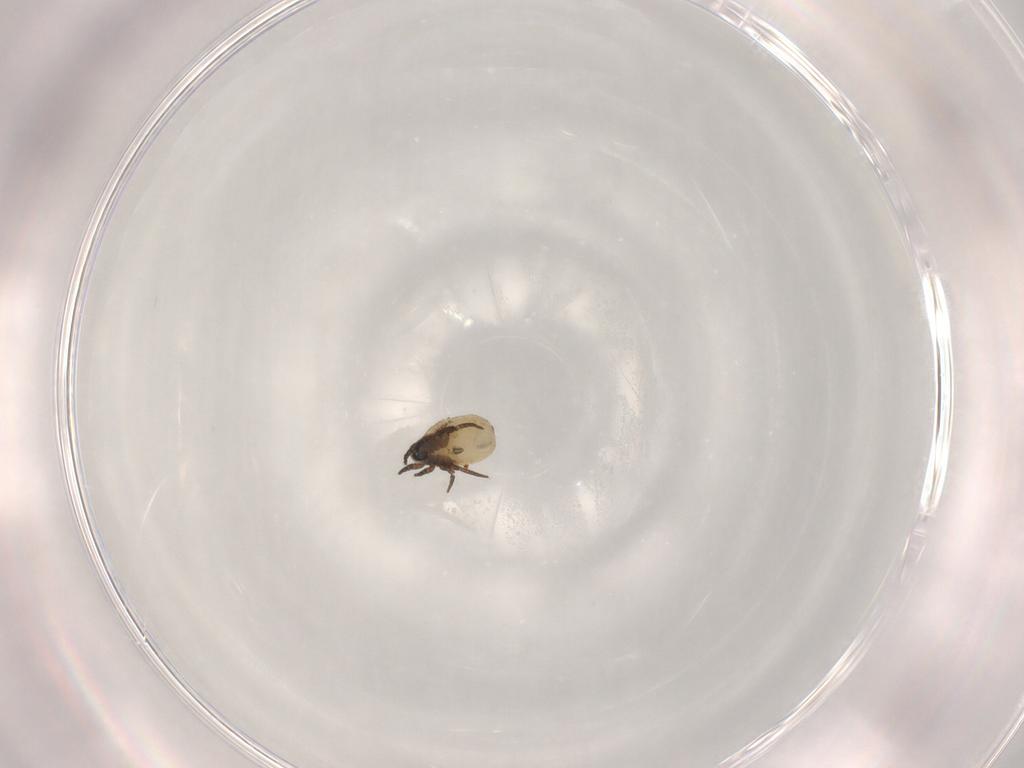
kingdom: Animalia
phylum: Arthropoda
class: Arachnida
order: Sarcoptiformes
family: Crotoniidae
